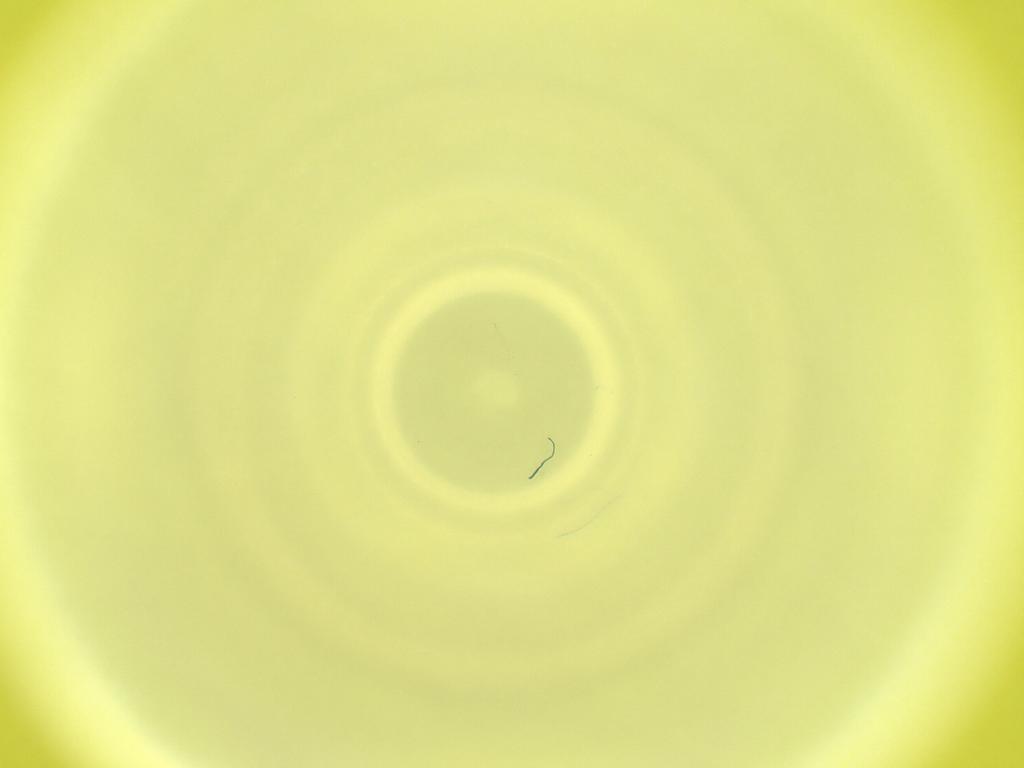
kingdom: Animalia
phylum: Arthropoda
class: Insecta
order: Diptera
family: Cecidomyiidae
